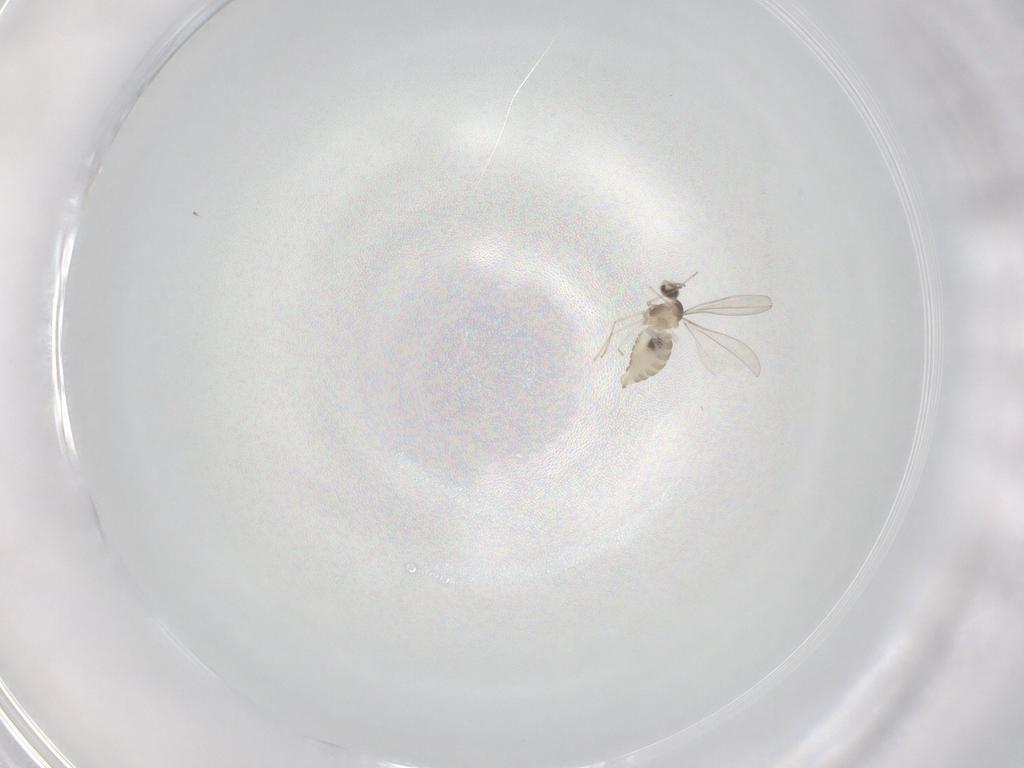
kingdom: Animalia
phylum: Arthropoda
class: Insecta
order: Diptera
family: Cecidomyiidae
